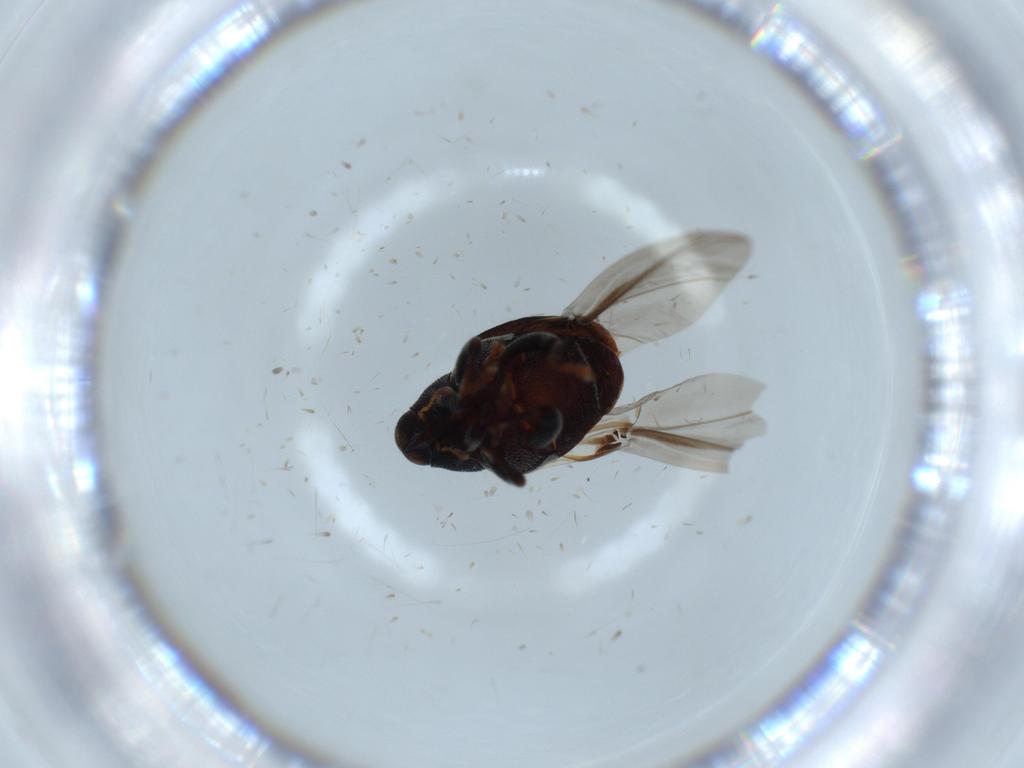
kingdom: Animalia
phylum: Arthropoda
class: Insecta
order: Coleoptera
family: Curculionidae
